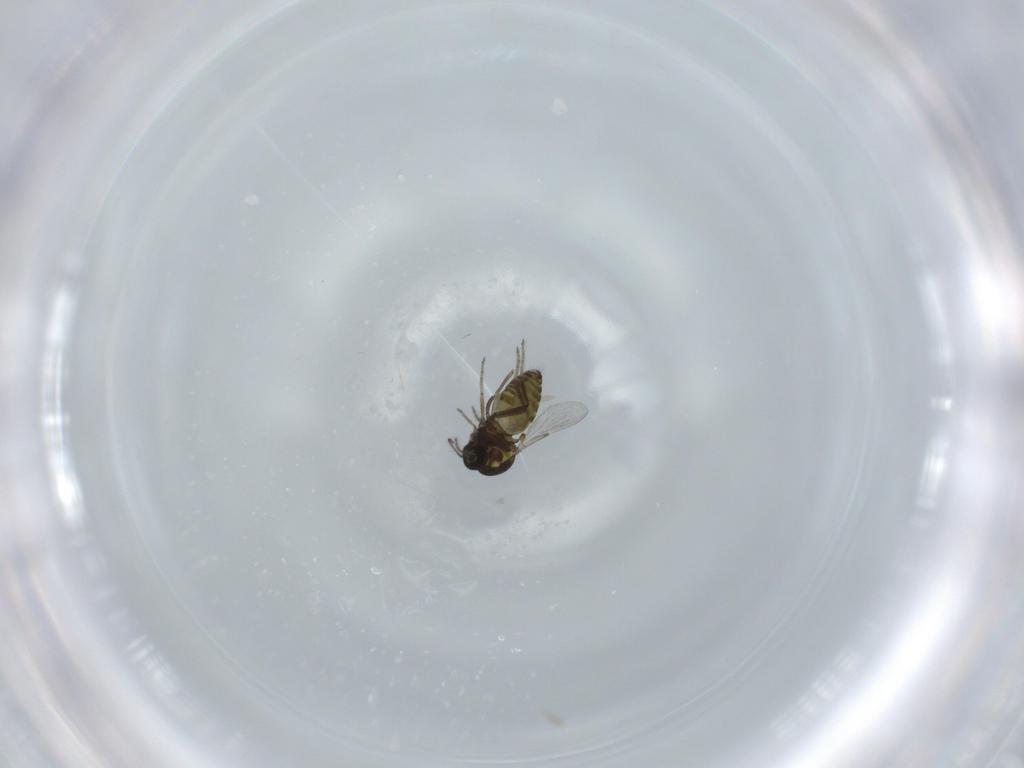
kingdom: Animalia
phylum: Arthropoda
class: Insecta
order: Diptera
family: Ceratopogonidae
